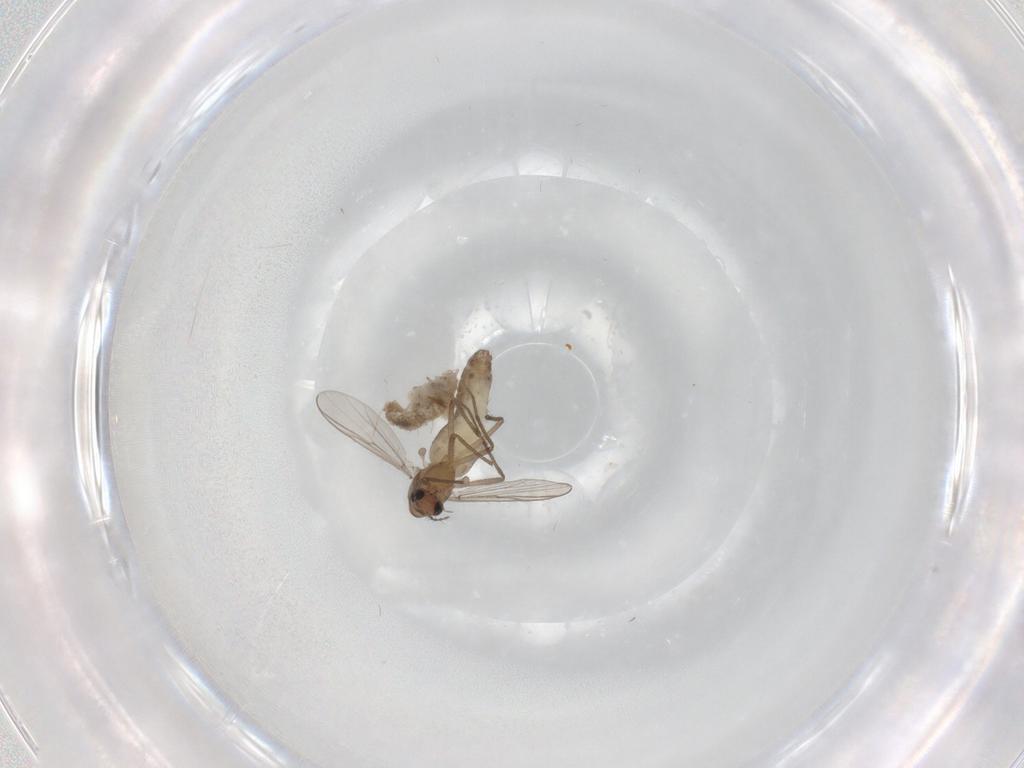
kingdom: Animalia
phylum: Arthropoda
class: Insecta
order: Diptera
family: Chironomidae
